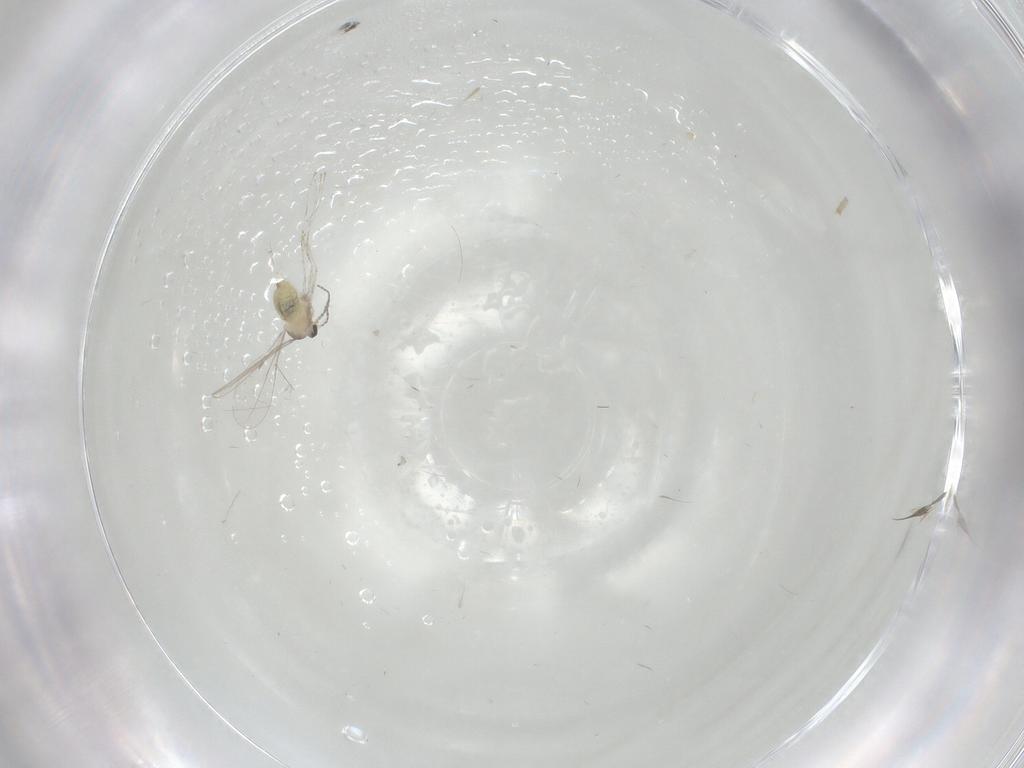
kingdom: Animalia
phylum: Arthropoda
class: Insecta
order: Diptera
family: Cecidomyiidae
